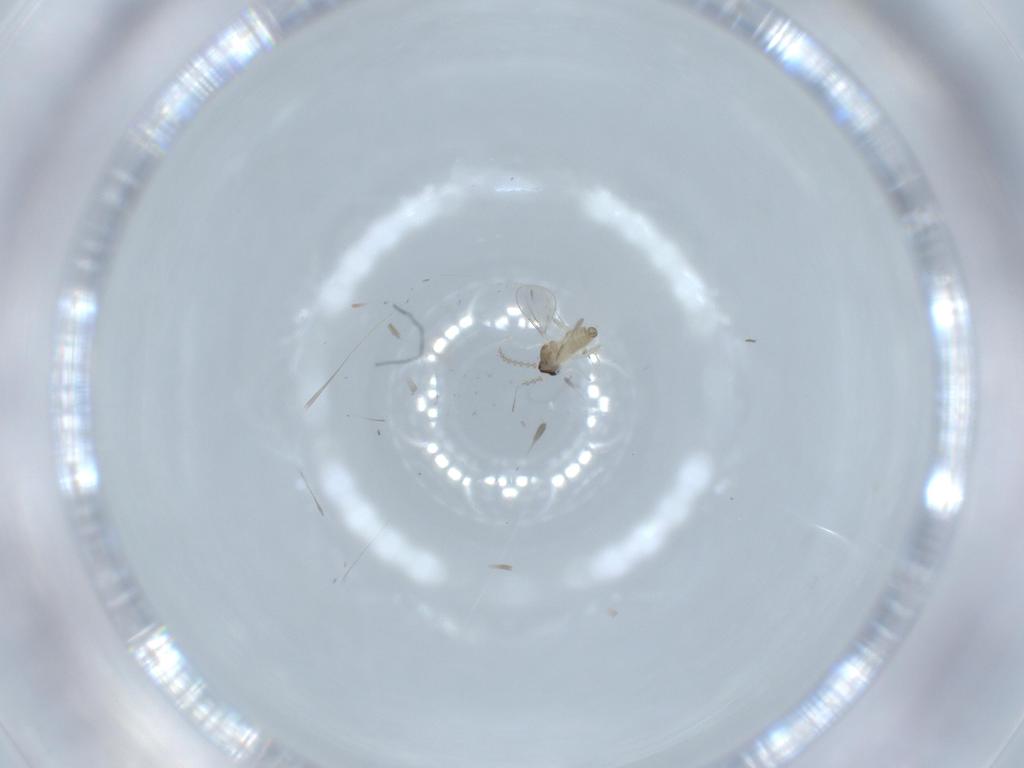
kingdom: Animalia
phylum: Arthropoda
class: Insecta
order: Diptera
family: Cecidomyiidae
